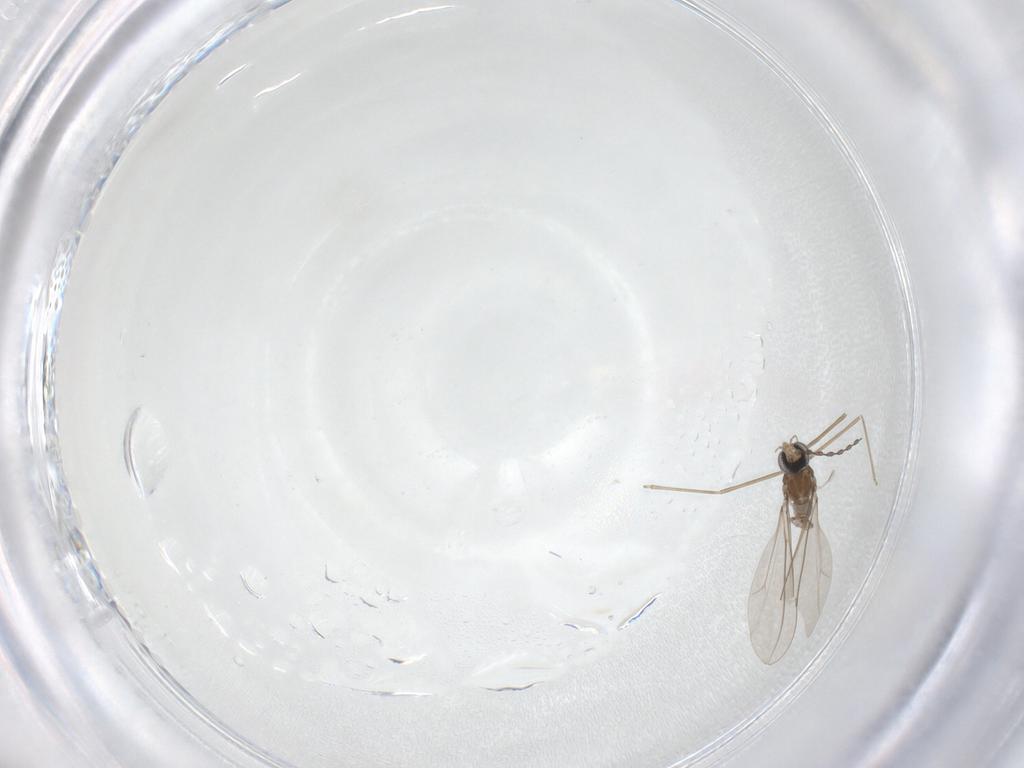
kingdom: Animalia
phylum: Arthropoda
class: Insecta
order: Diptera
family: Cecidomyiidae
